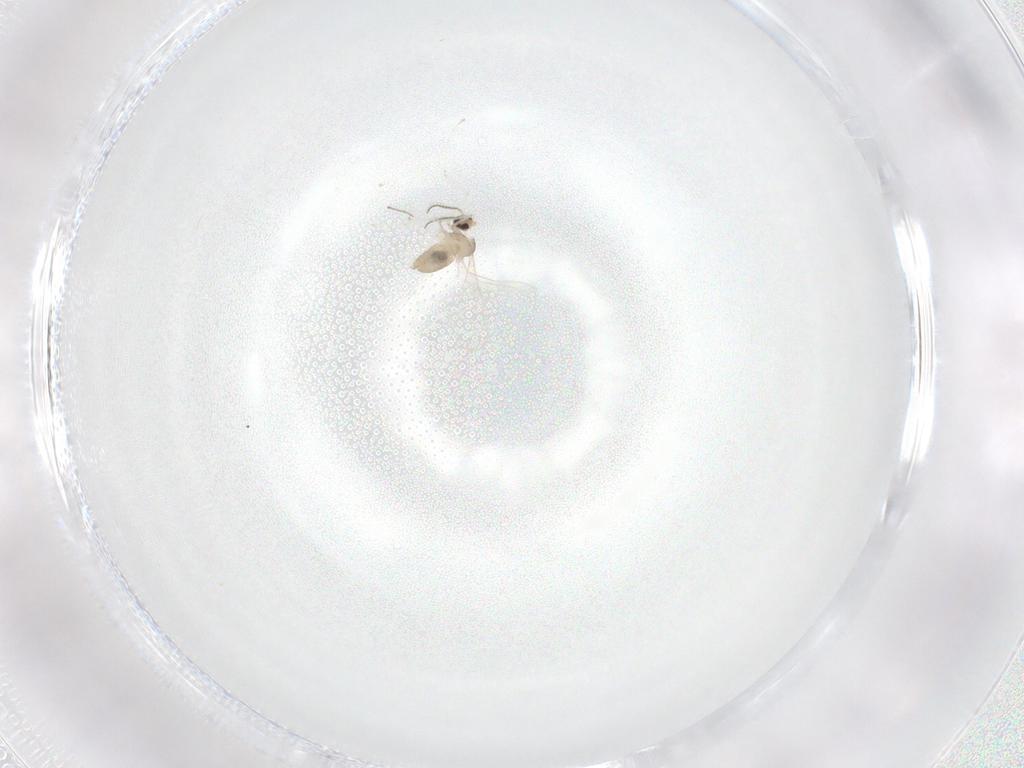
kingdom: Animalia
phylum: Arthropoda
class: Insecta
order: Diptera
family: Cecidomyiidae
